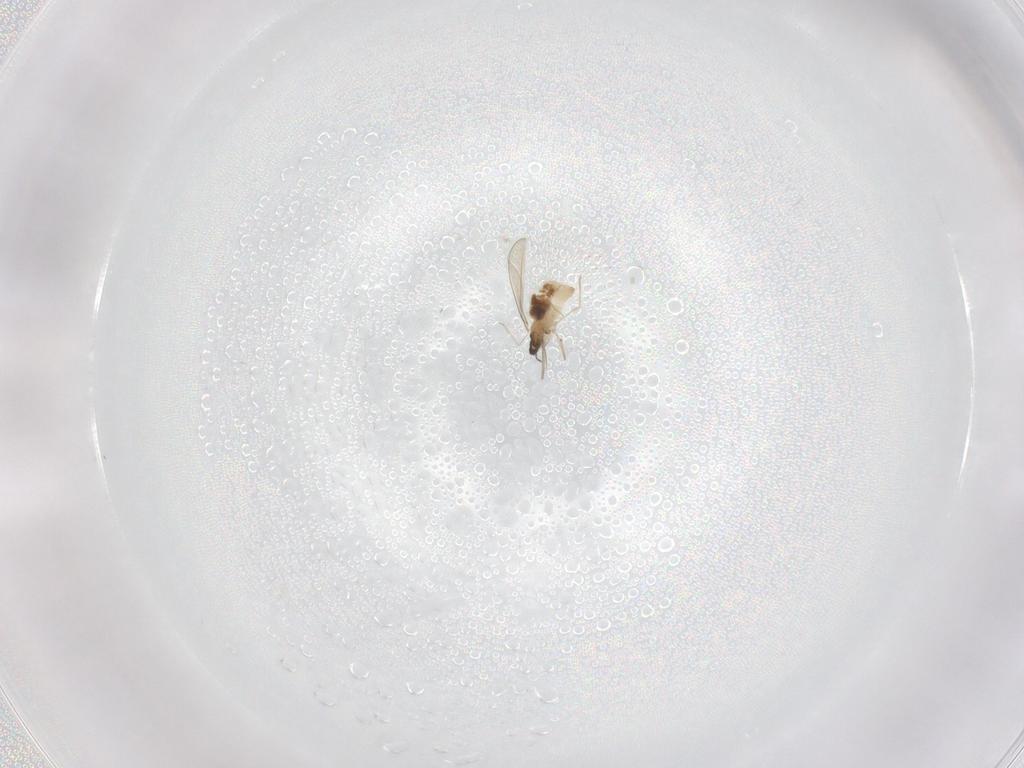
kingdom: Animalia
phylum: Arthropoda
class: Insecta
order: Diptera
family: Cecidomyiidae
